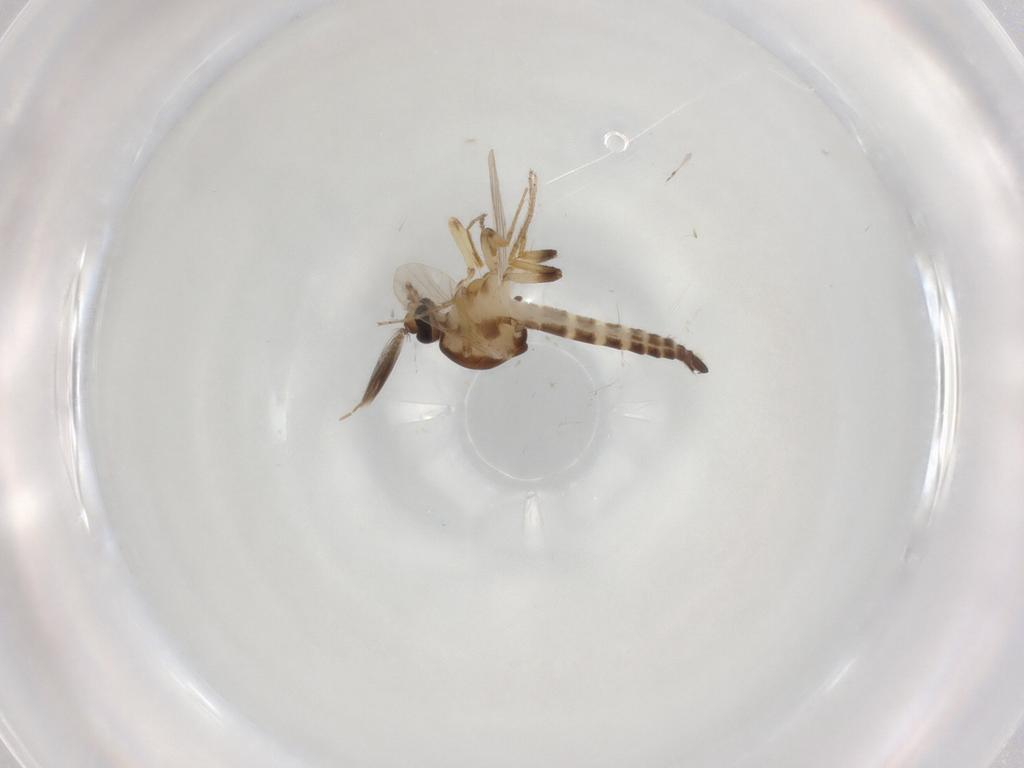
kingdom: Animalia
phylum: Arthropoda
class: Insecta
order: Diptera
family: Ceratopogonidae
